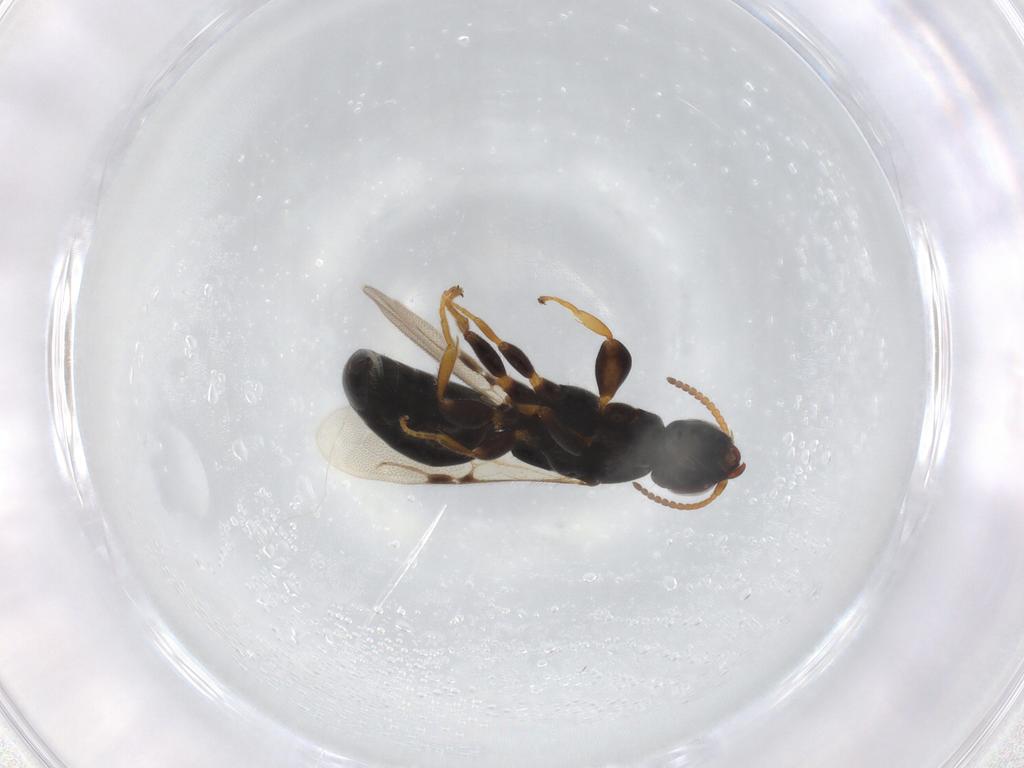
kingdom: Animalia
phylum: Arthropoda
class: Insecta
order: Hymenoptera
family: Bethylidae
